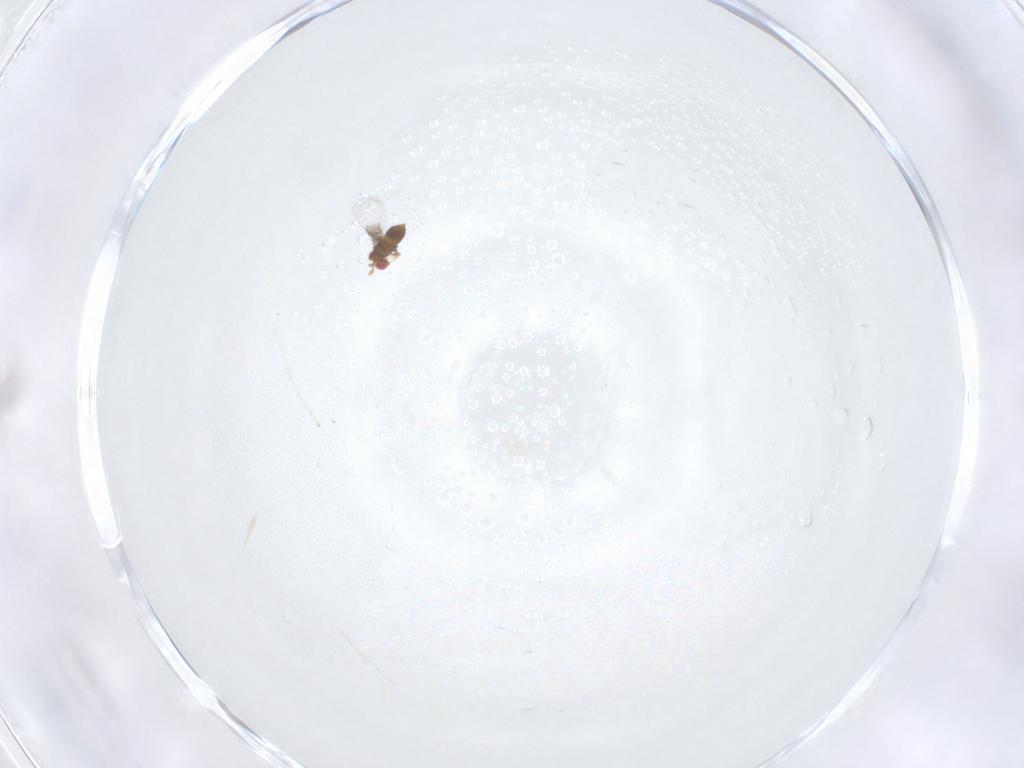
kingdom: Animalia
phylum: Arthropoda
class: Insecta
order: Hymenoptera
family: Trichogrammatidae
